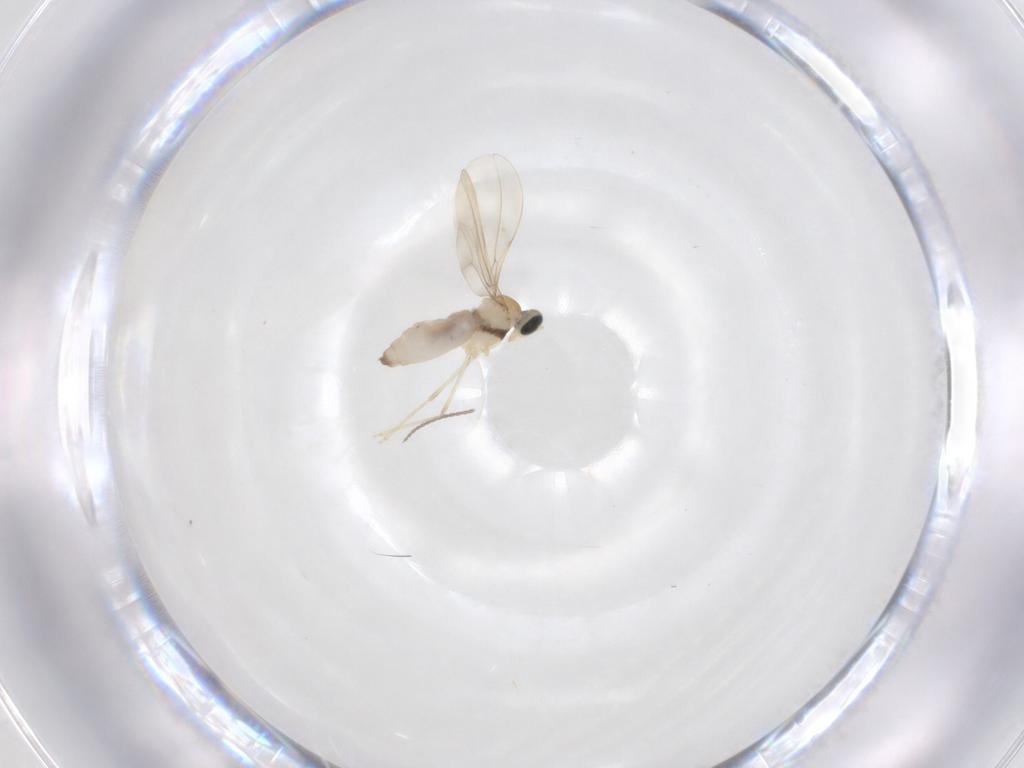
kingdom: Animalia
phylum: Arthropoda
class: Insecta
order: Diptera
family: Cecidomyiidae
